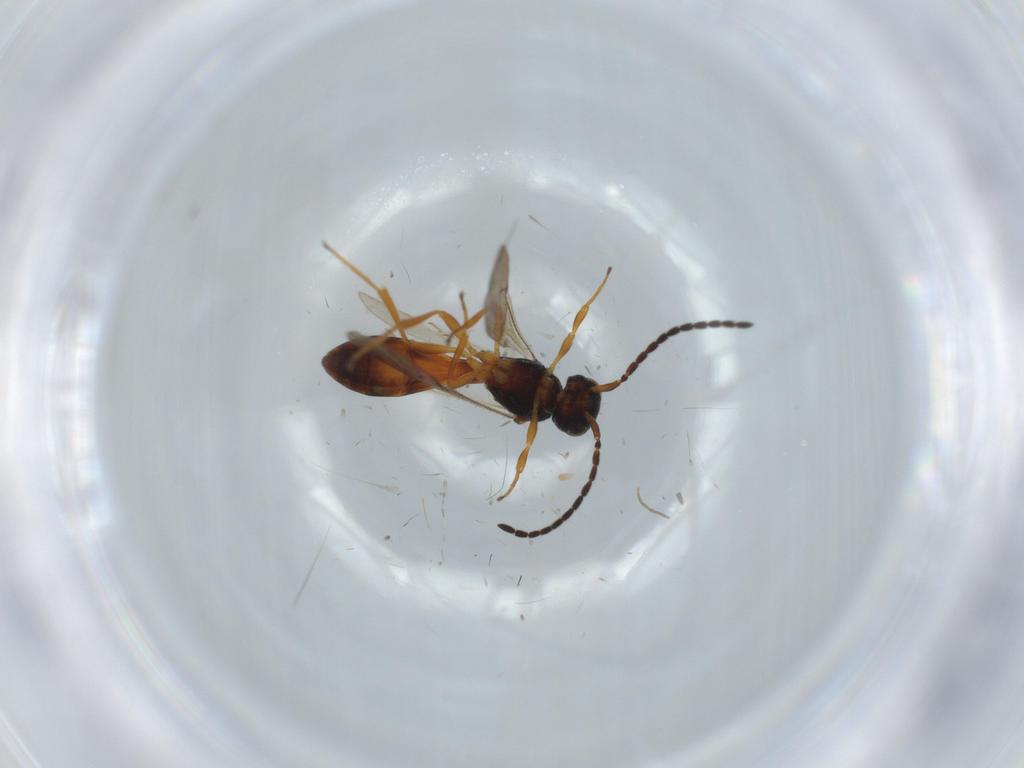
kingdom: Animalia
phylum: Arthropoda
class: Insecta
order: Hymenoptera
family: Scelionidae
